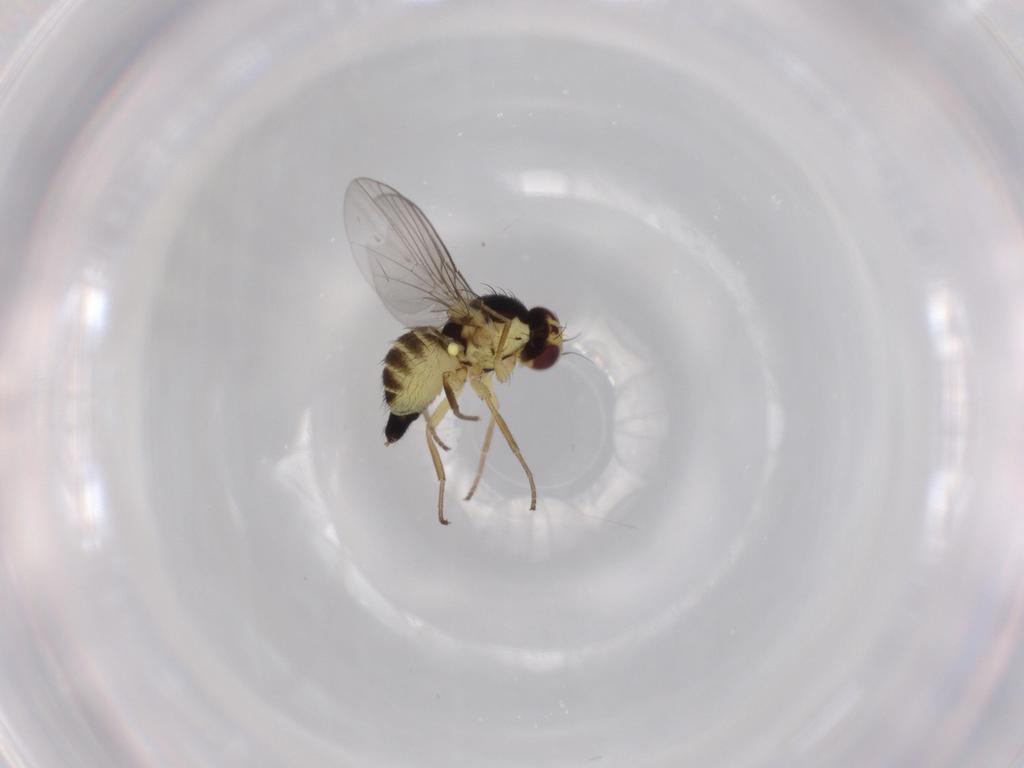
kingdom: Animalia
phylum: Arthropoda
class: Insecta
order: Diptera
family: Agromyzidae
